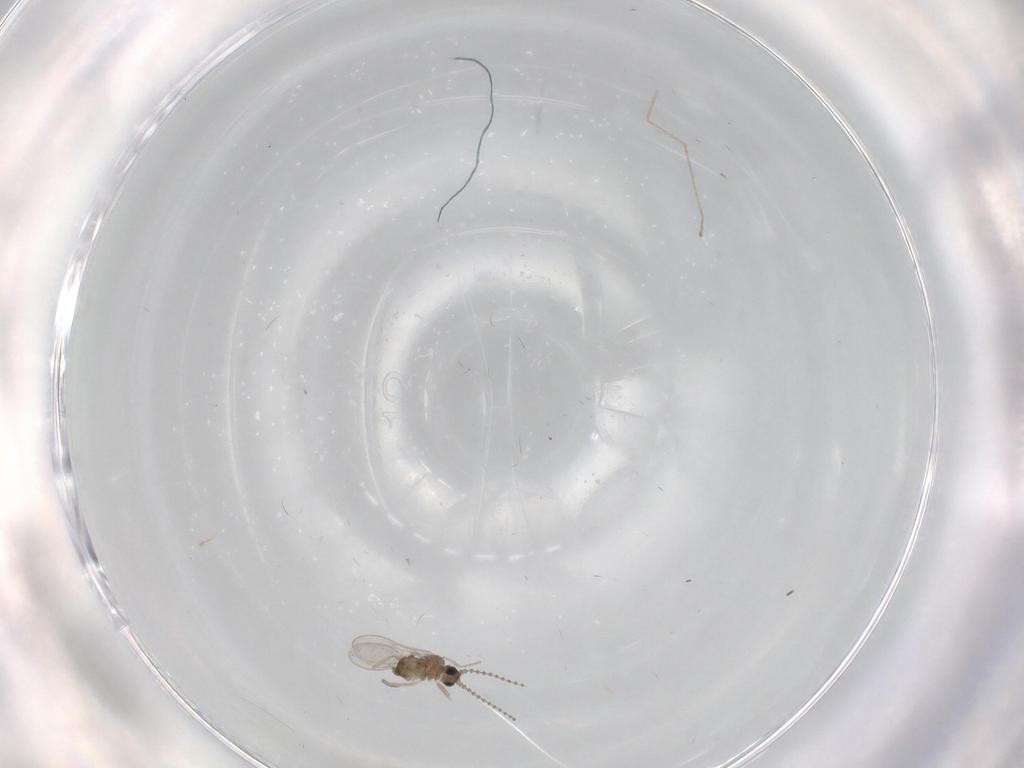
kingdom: Animalia
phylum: Arthropoda
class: Insecta
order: Diptera
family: Cecidomyiidae
